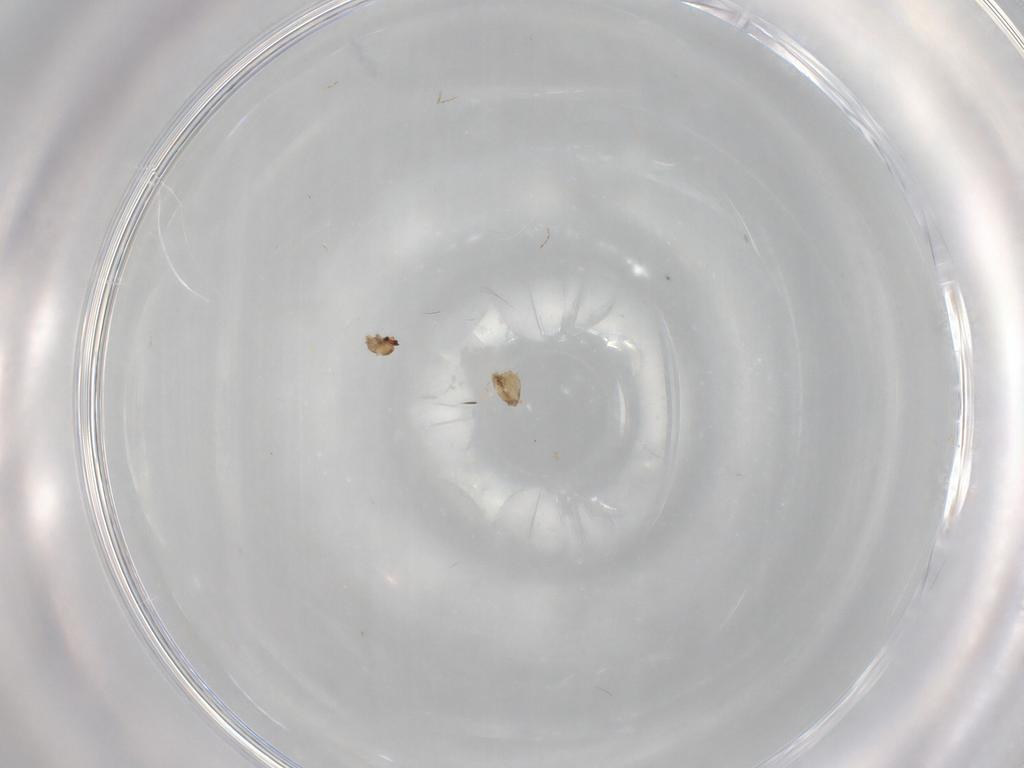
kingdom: Animalia
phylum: Arthropoda
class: Insecta
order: Diptera
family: Cecidomyiidae
